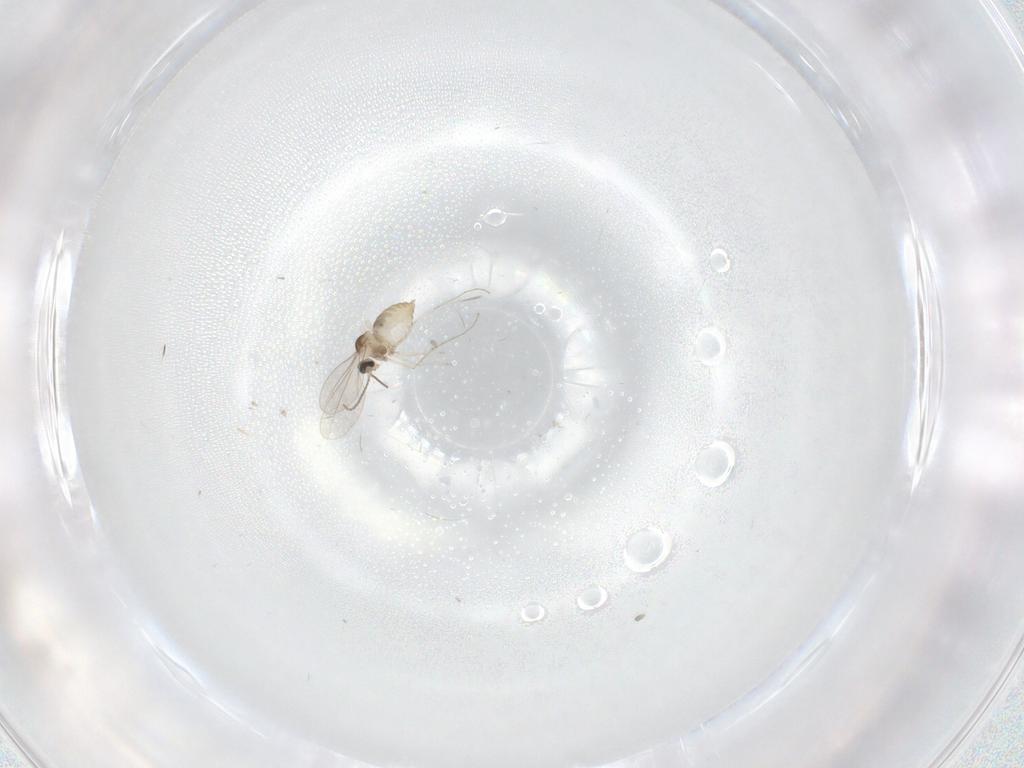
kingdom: Animalia
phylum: Arthropoda
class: Insecta
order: Diptera
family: Cecidomyiidae
